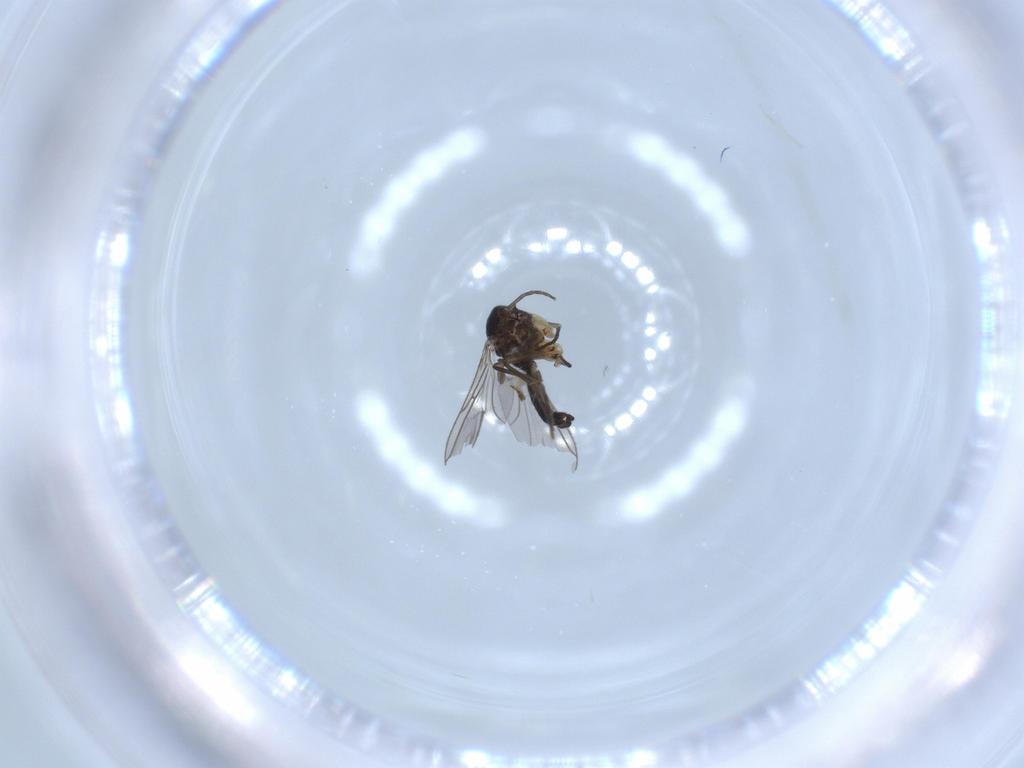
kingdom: Animalia
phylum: Arthropoda
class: Insecta
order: Diptera
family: Sciaridae
